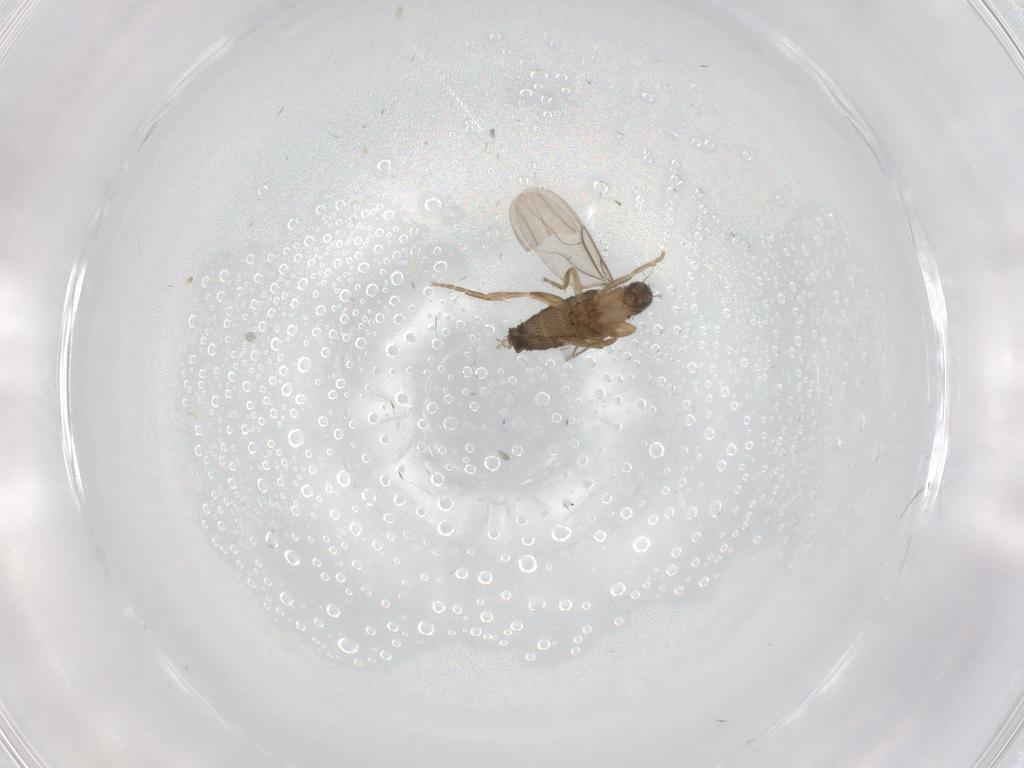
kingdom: Animalia
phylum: Arthropoda
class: Insecta
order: Diptera
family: Phoridae
